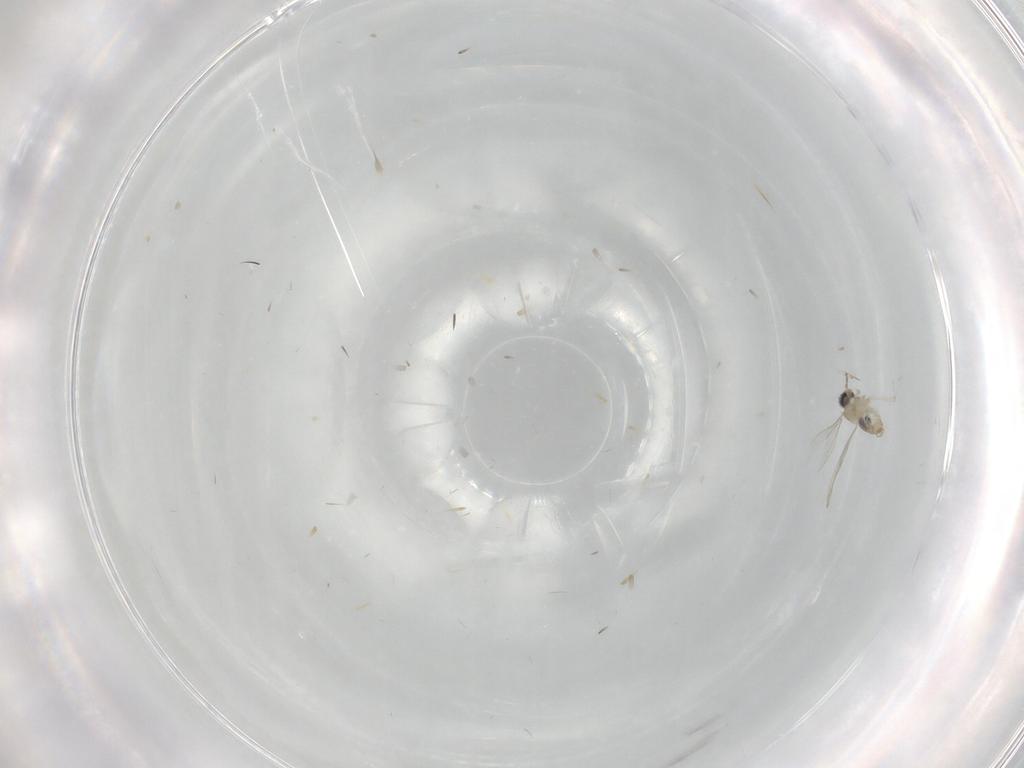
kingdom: Animalia
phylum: Arthropoda
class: Insecta
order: Diptera
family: Cecidomyiidae
